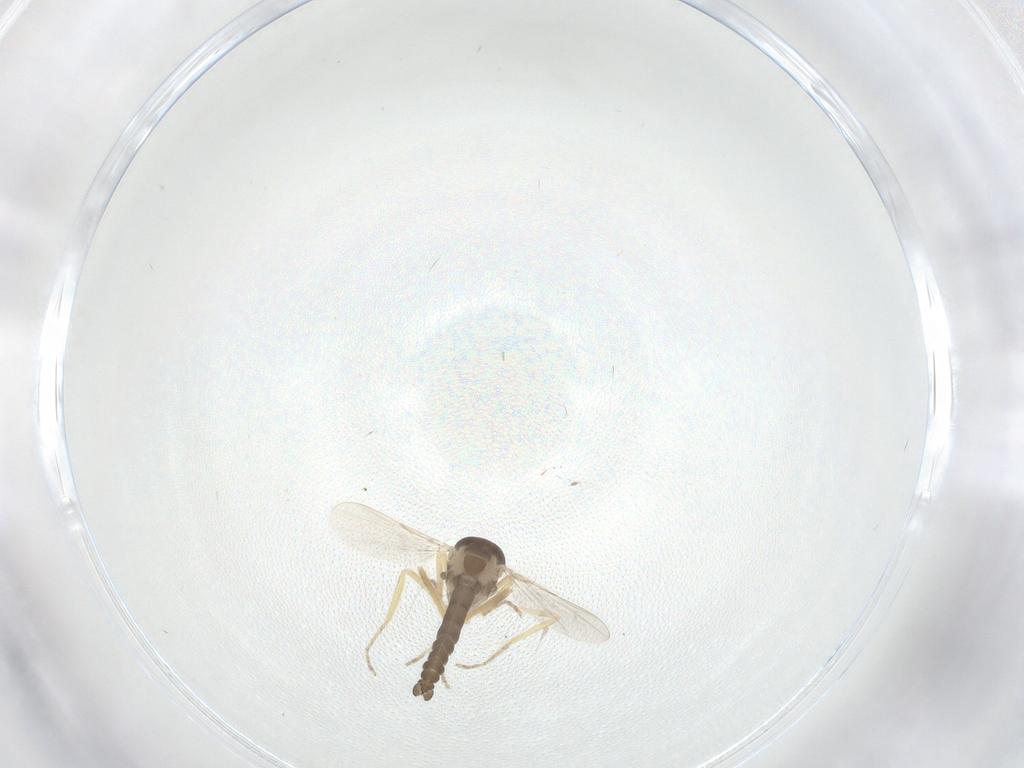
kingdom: Animalia
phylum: Arthropoda
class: Insecta
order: Diptera
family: Ceratopogonidae
